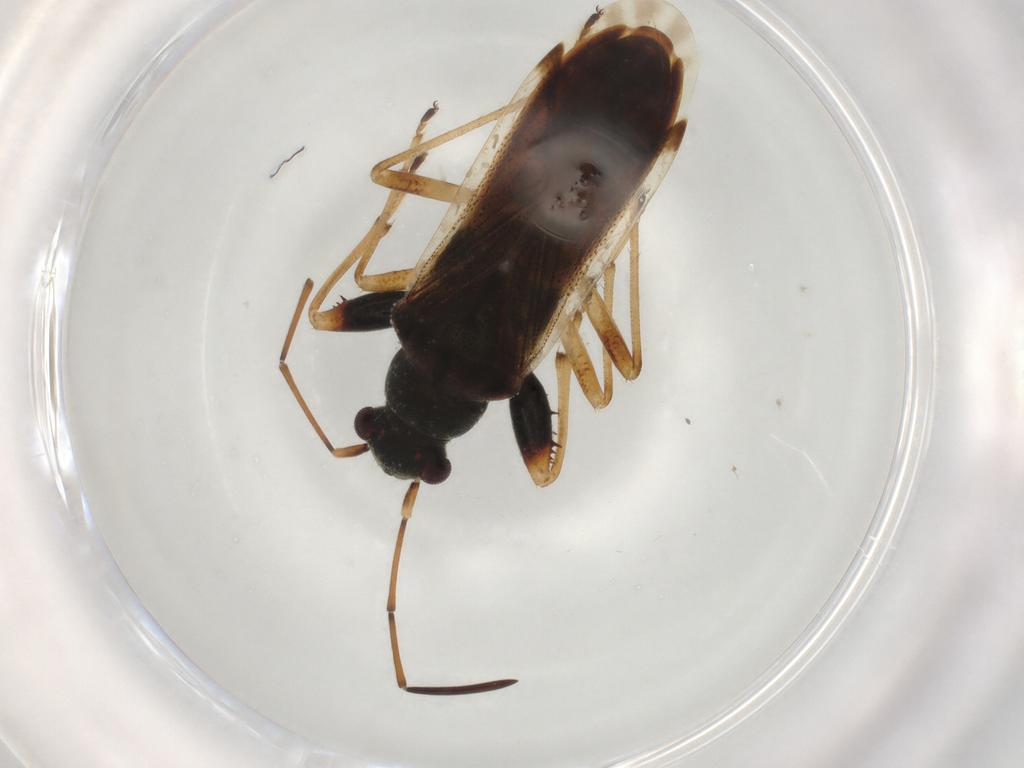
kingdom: Animalia
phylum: Arthropoda
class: Insecta
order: Hemiptera
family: Rhyparochromidae
